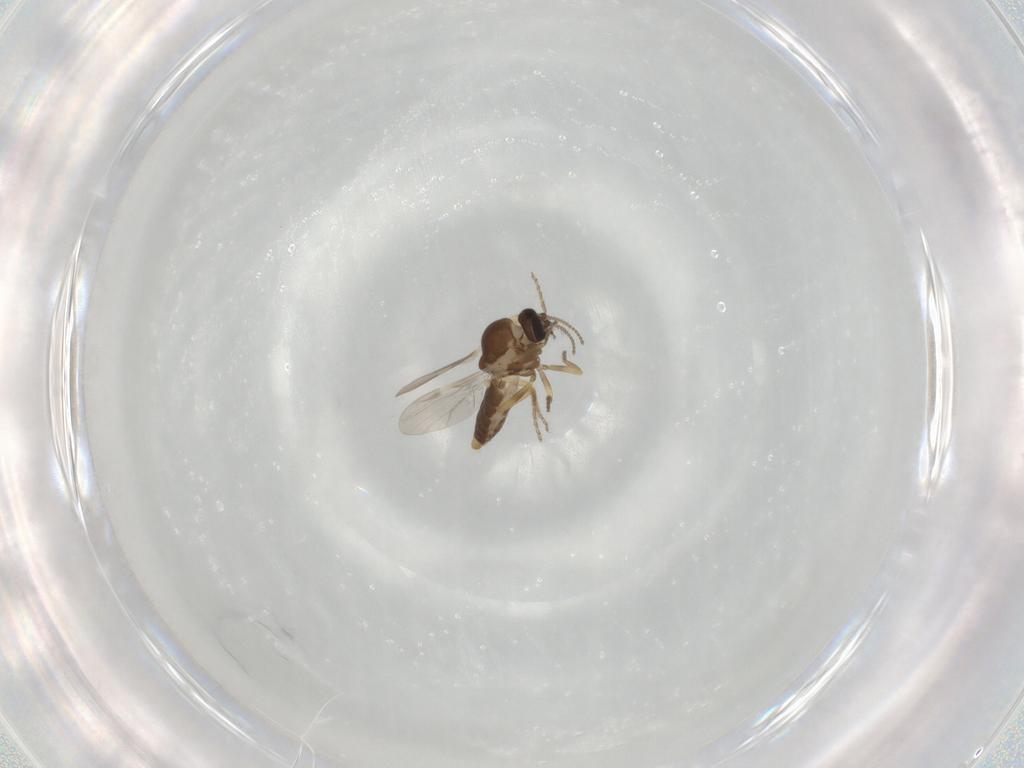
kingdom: Animalia
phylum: Arthropoda
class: Insecta
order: Diptera
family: Ceratopogonidae
